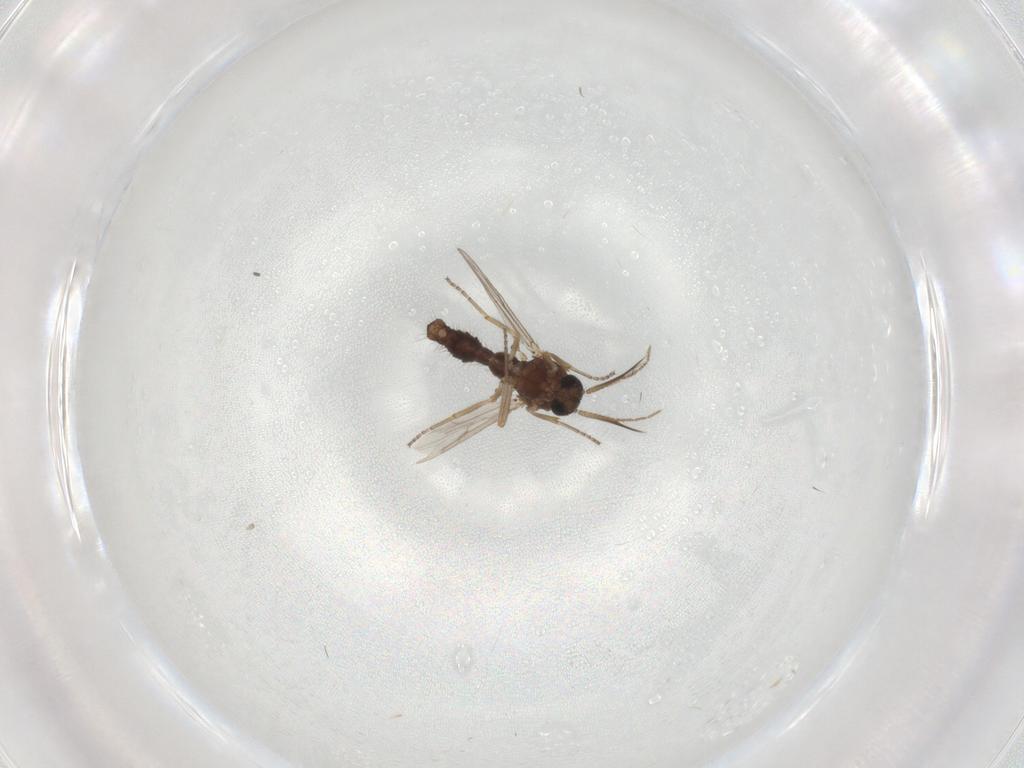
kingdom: Animalia
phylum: Arthropoda
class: Insecta
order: Diptera
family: Ceratopogonidae
